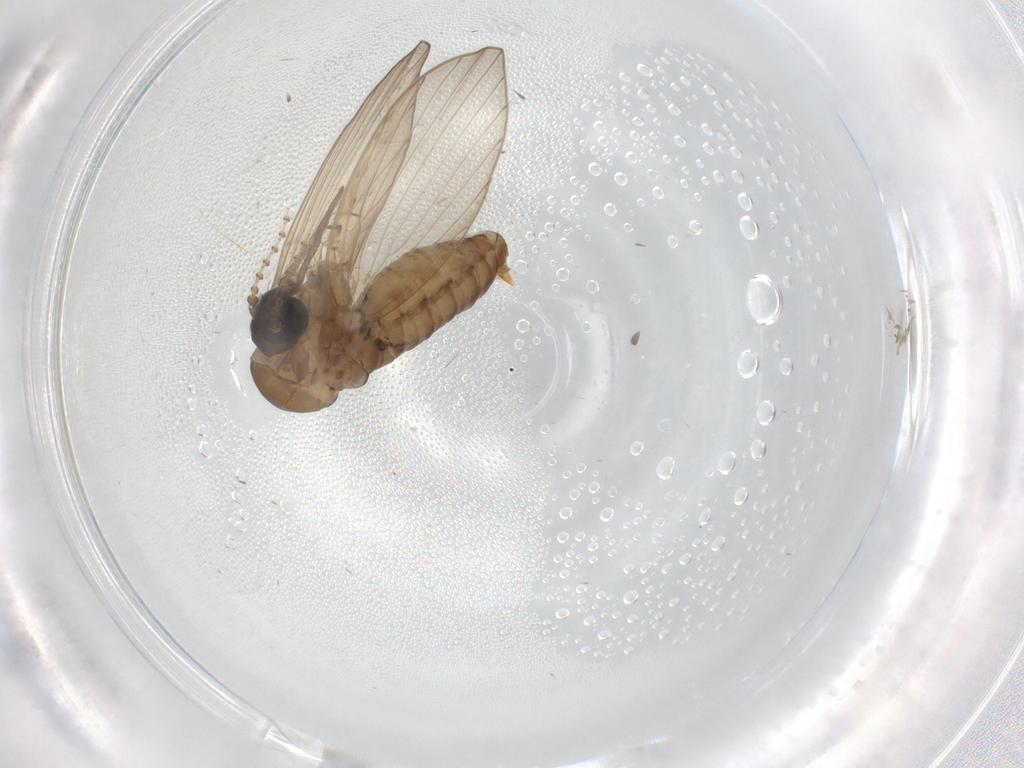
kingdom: Animalia
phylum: Arthropoda
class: Insecta
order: Diptera
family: Psychodidae
